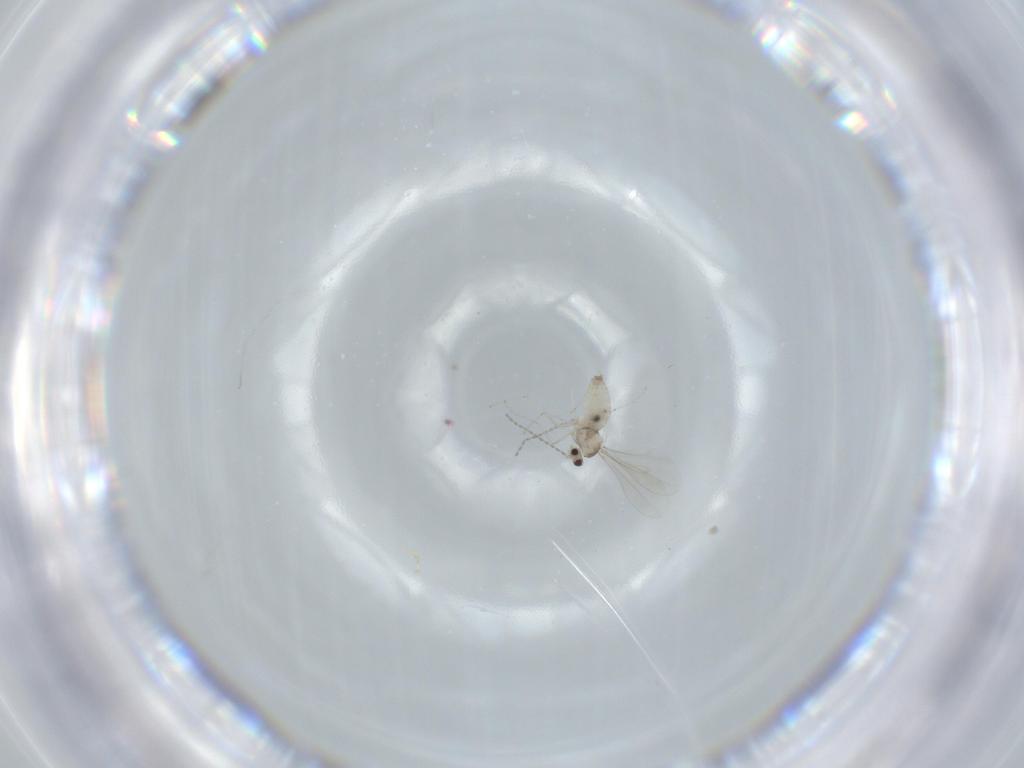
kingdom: Animalia
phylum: Arthropoda
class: Insecta
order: Diptera
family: Cecidomyiidae
